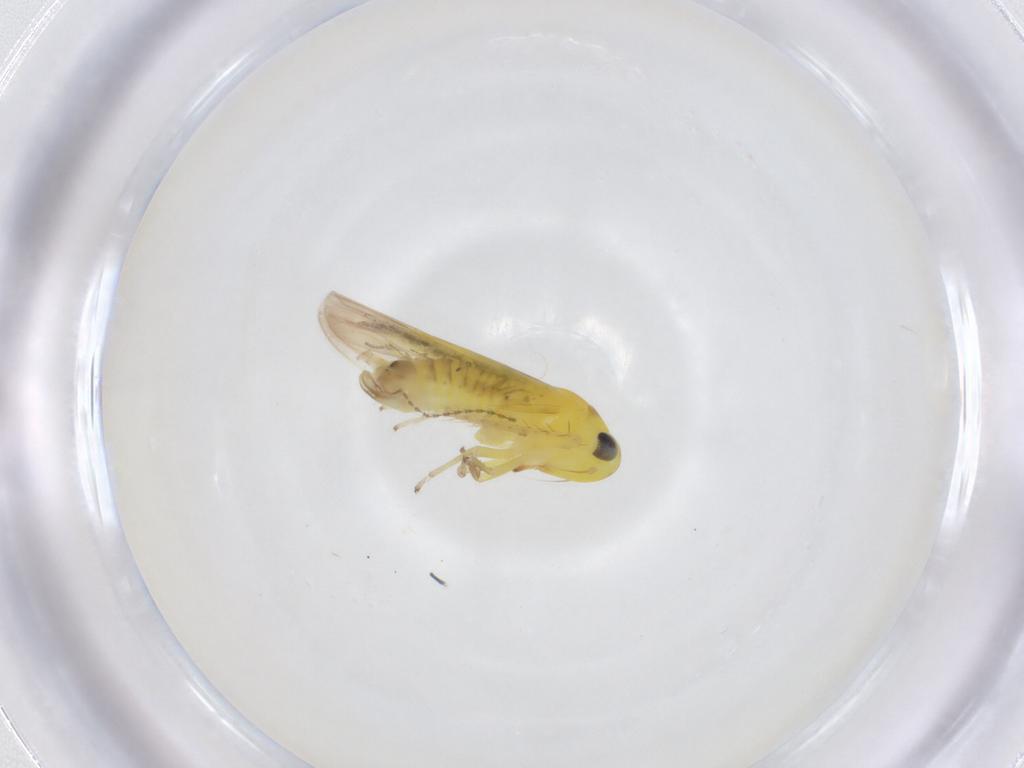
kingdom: Animalia
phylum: Arthropoda
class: Insecta
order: Hemiptera
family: Cicadellidae
